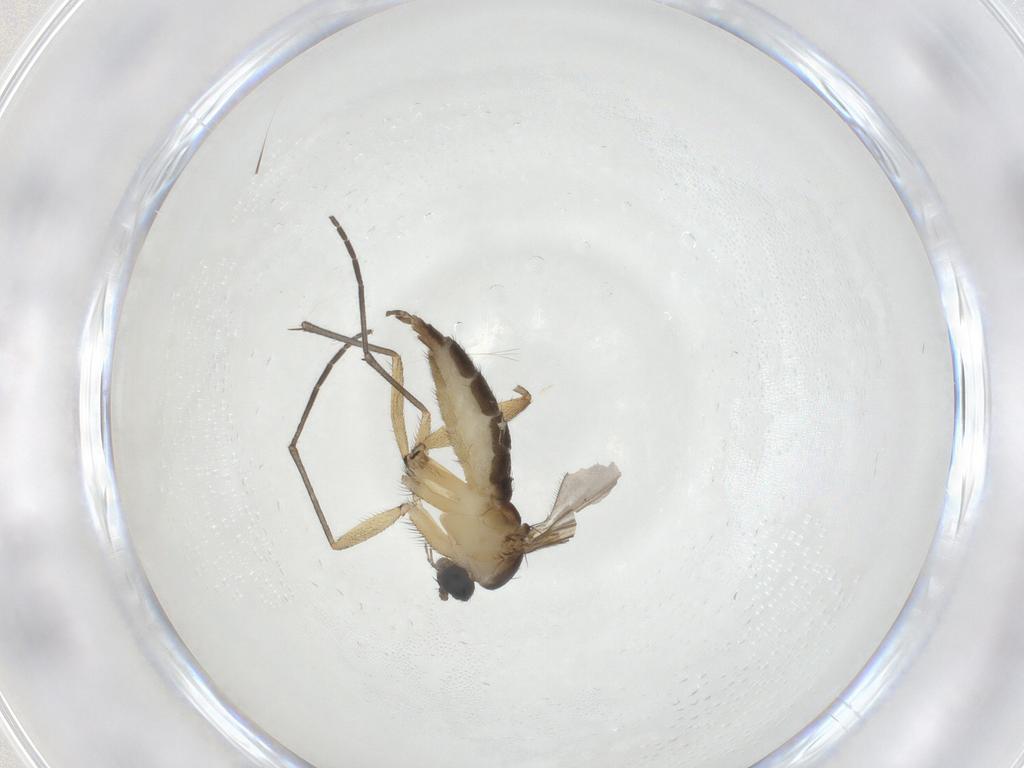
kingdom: Animalia
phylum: Arthropoda
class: Insecta
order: Diptera
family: Sciaridae
